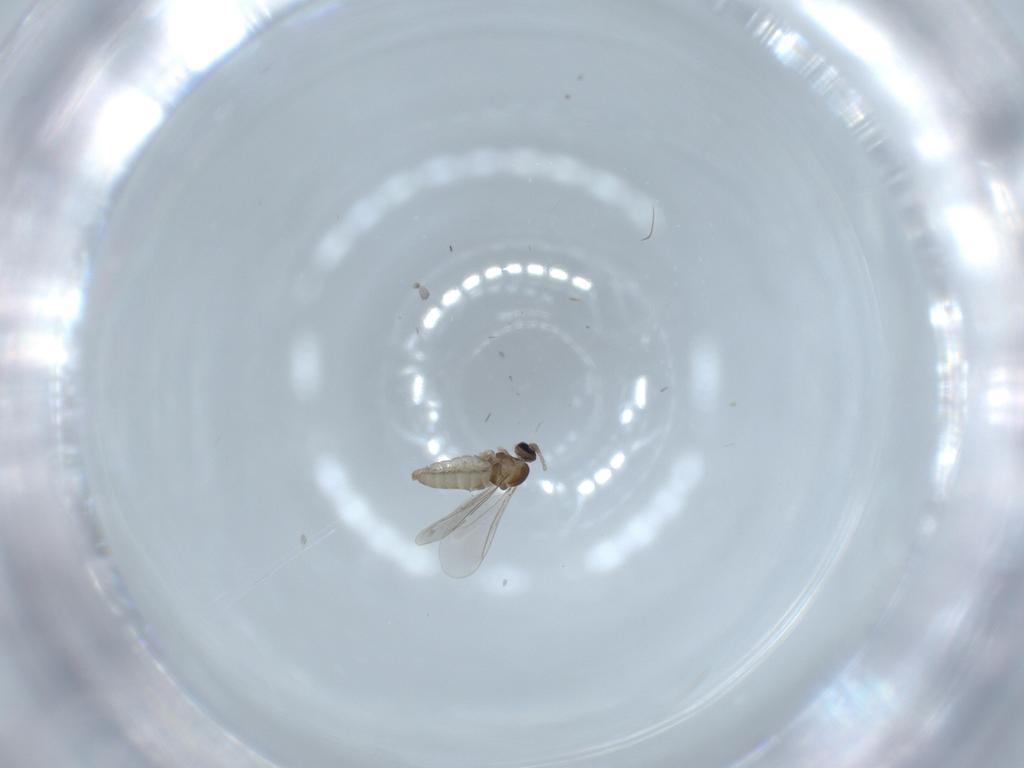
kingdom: Animalia
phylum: Arthropoda
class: Insecta
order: Diptera
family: Cecidomyiidae
